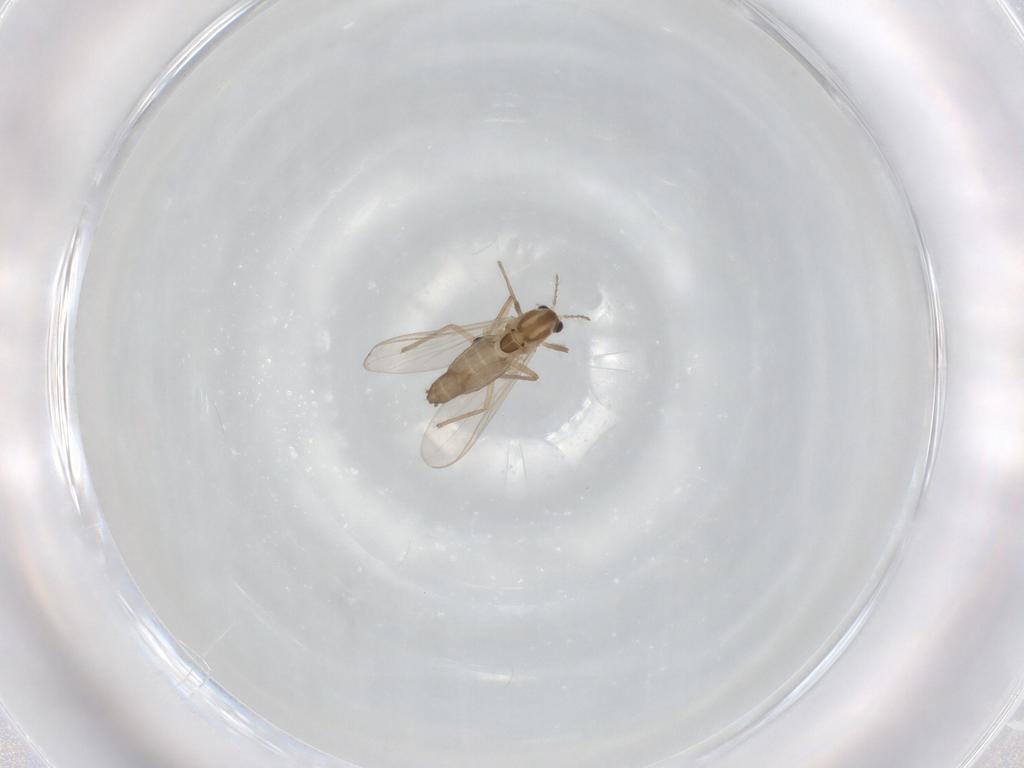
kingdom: Animalia
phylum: Arthropoda
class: Insecta
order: Diptera
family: Chironomidae
